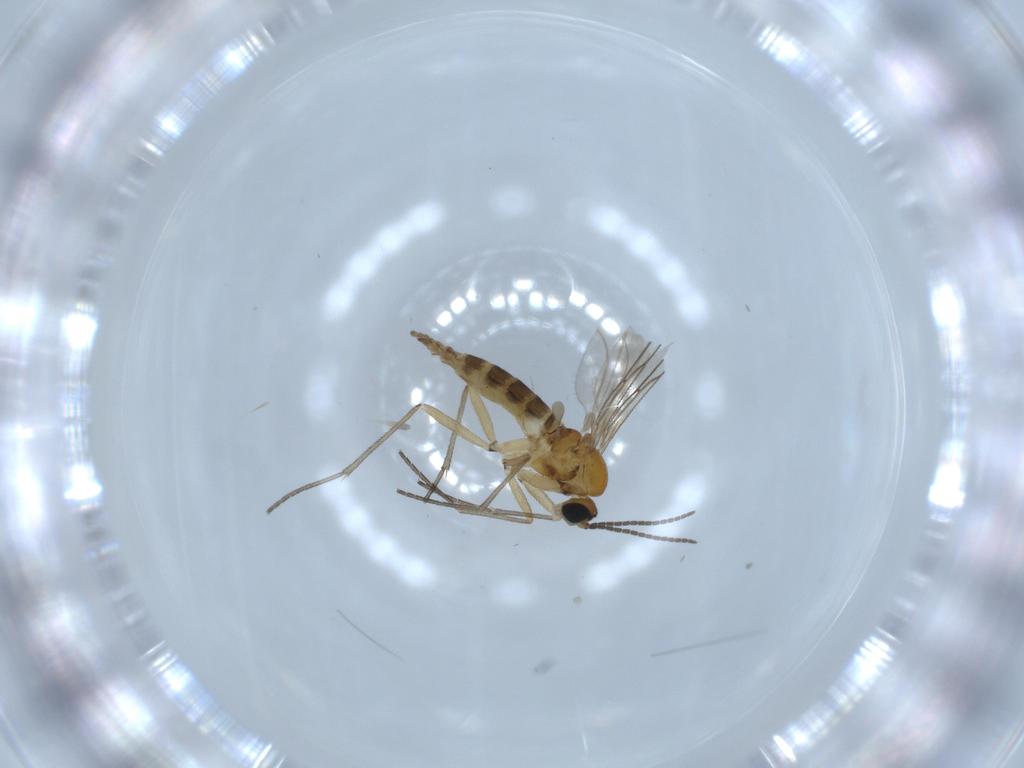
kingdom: Animalia
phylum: Arthropoda
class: Insecta
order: Diptera
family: Sciaridae
